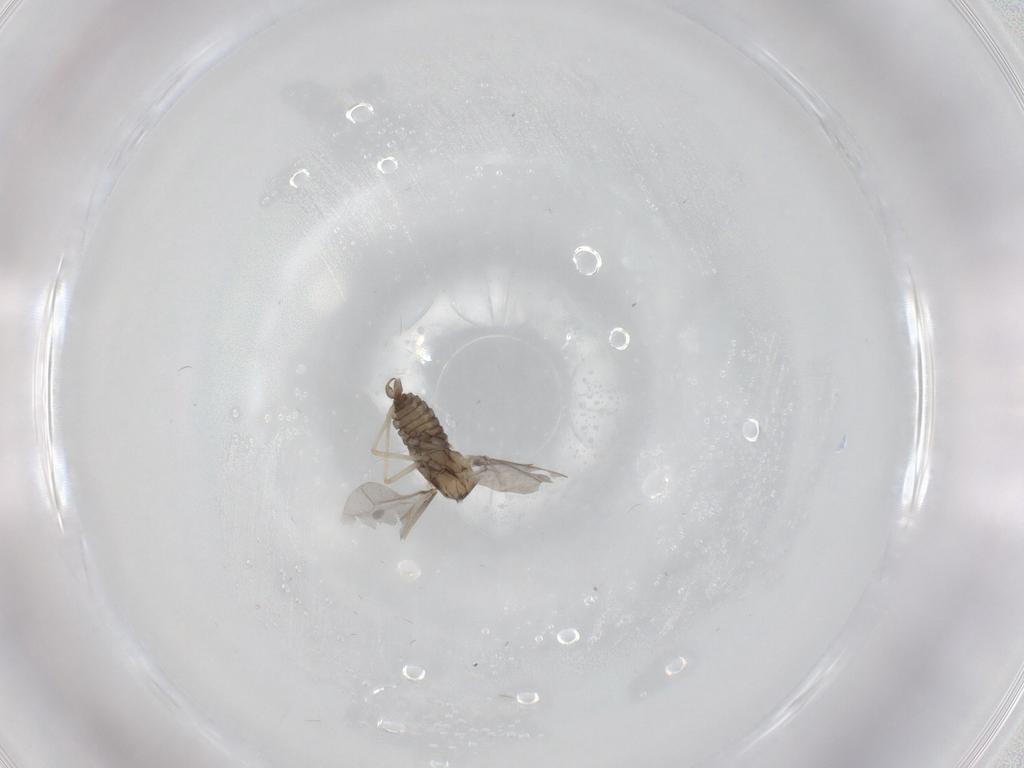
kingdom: Animalia
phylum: Arthropoda
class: Insecta
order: Diptera
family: Cecidomyiidae
